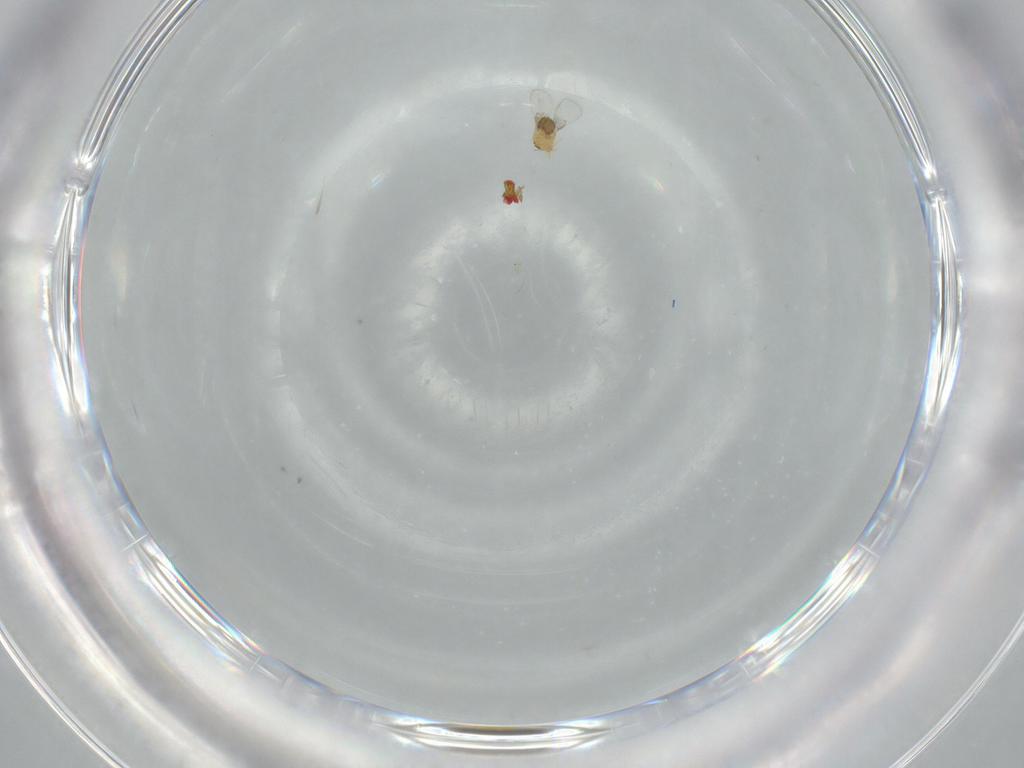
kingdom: Animalia
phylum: Arthropoda
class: Insecta
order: Hymenoptera
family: Trichogrammatidae
